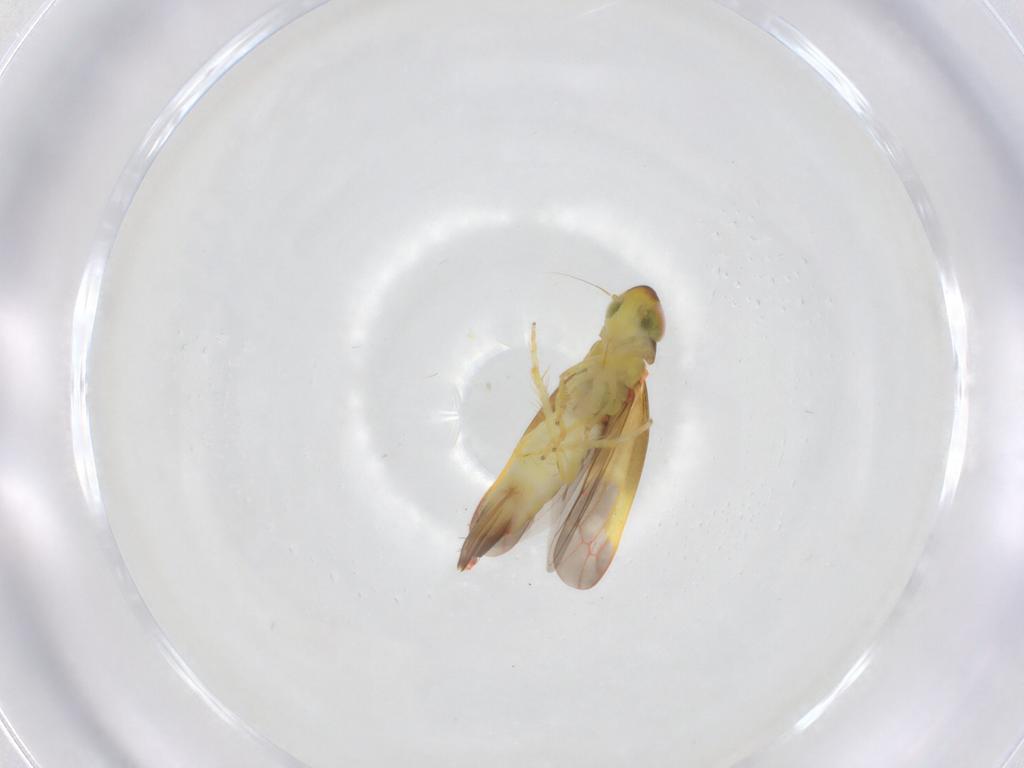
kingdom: Animalia
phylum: Arthropoda
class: Insecta
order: Hemiptera
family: Cicadellidae
